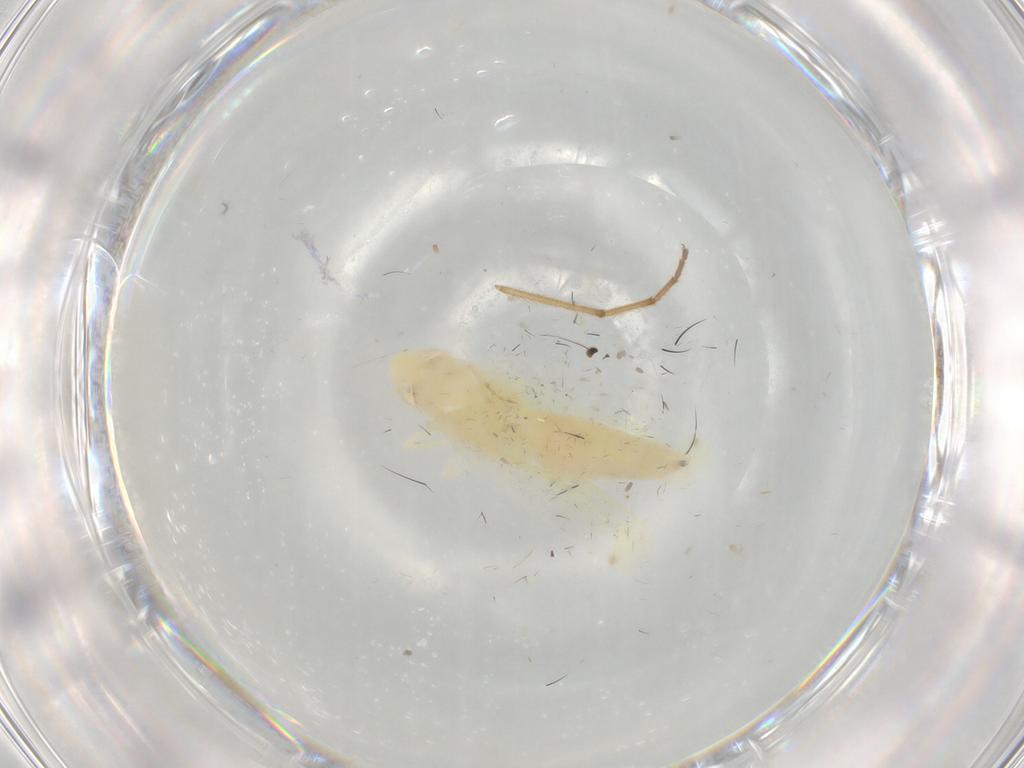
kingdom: Animalia
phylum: Arthropoda
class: Insecta
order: Hemiptera
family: Cicadellidae
